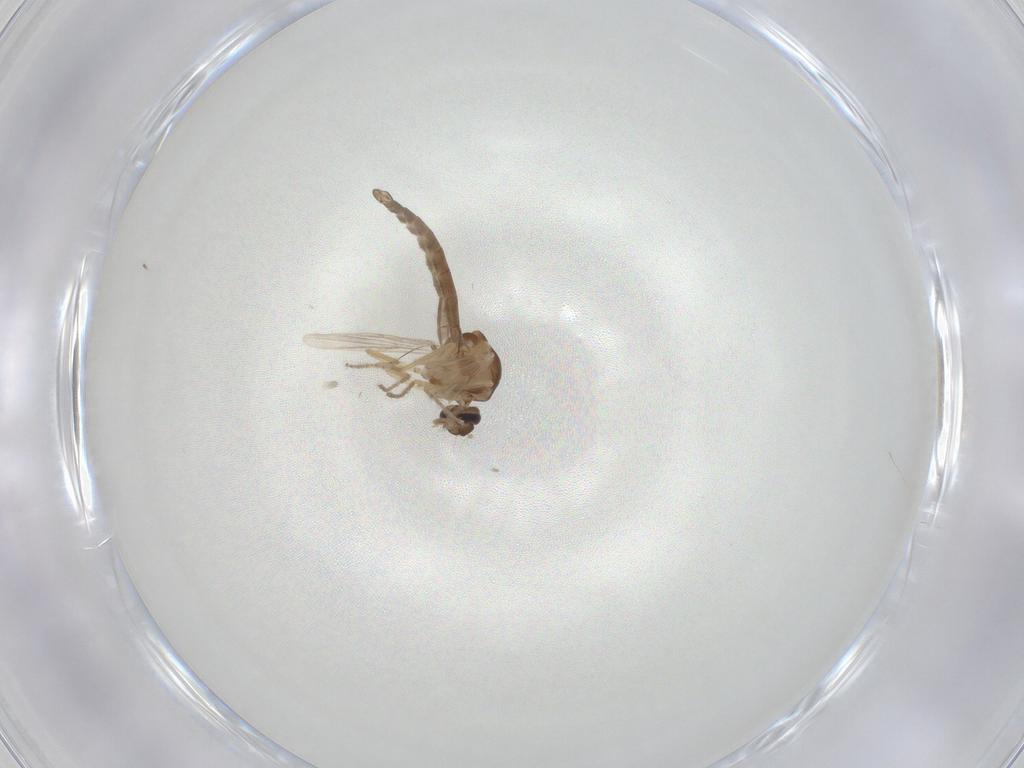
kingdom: Animalia
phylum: Arthropoda
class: Insecta
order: Diptera
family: Ceratopogonidae
